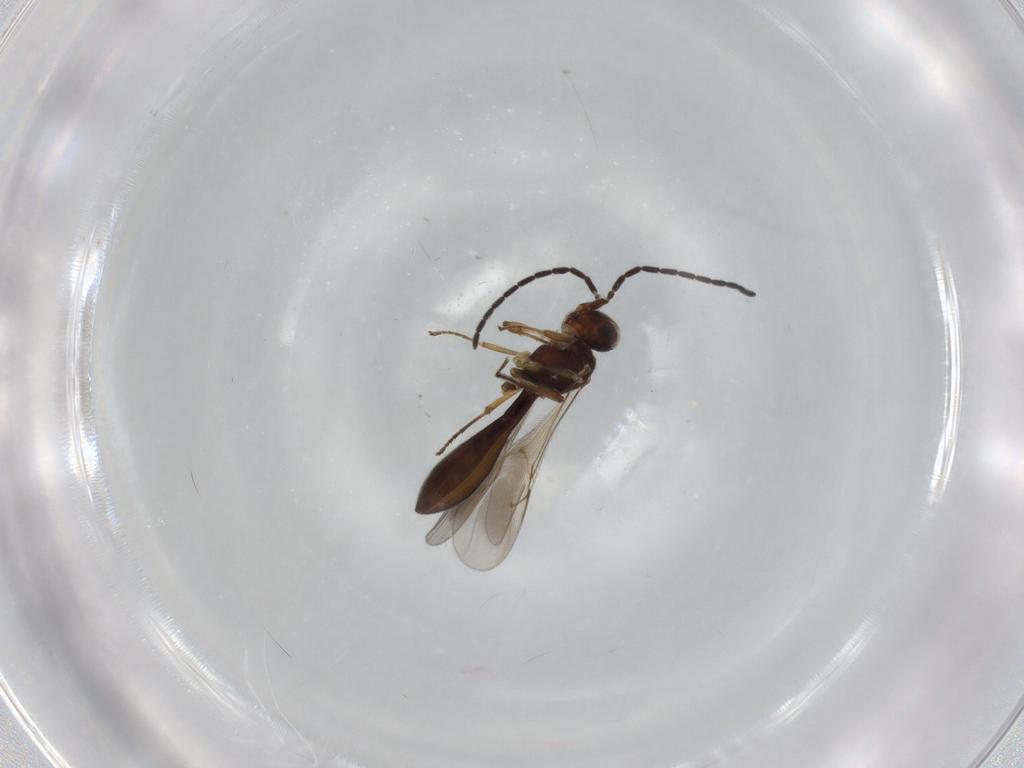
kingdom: Animalia
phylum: Arthropoda
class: Insecta
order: Hymenoptera
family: Scelionidae
